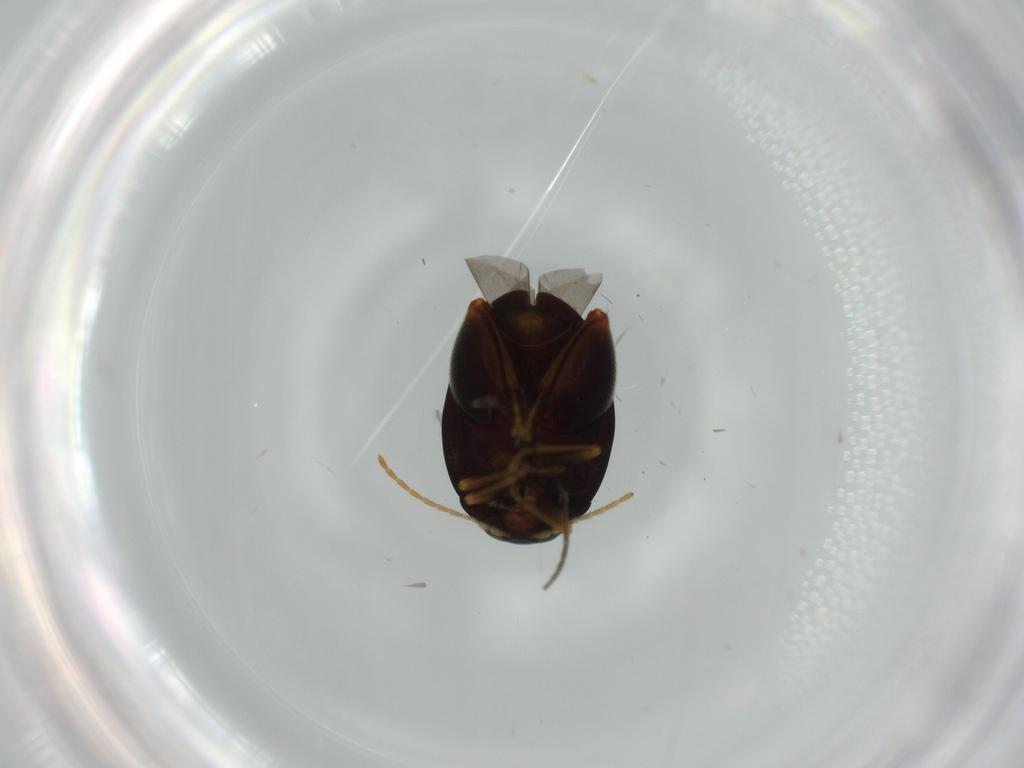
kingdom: Animalia
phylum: Arthropoda
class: Insecta
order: Coleoptera
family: Chrysomelidae
